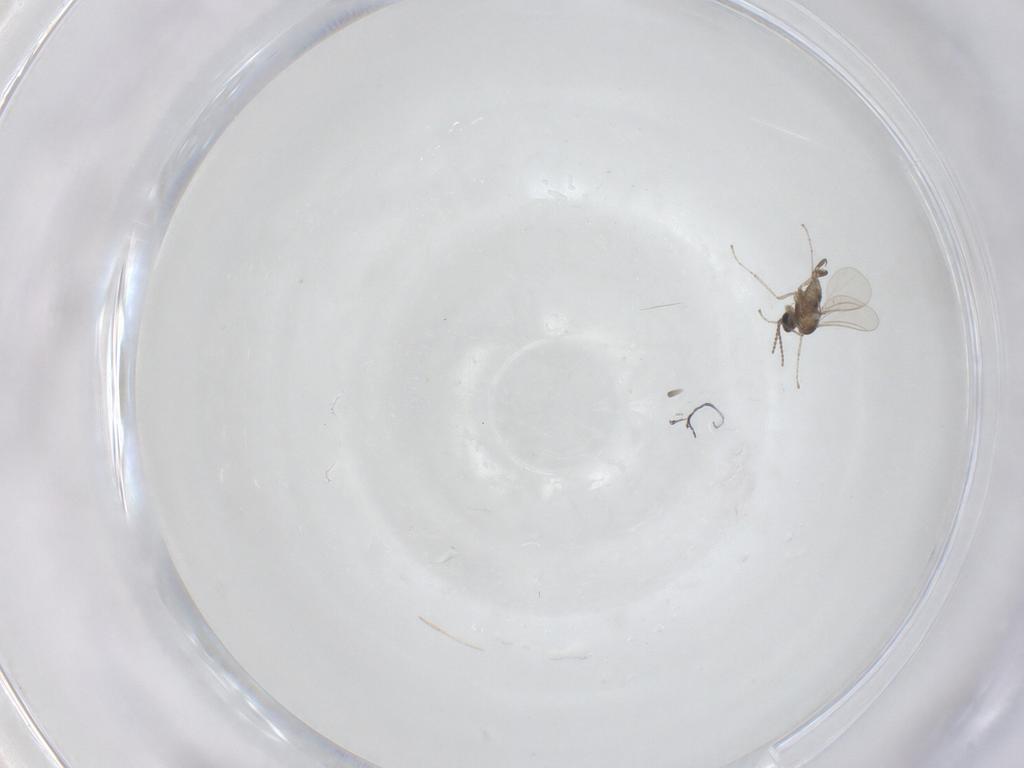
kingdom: Animalia
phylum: Arthropoda
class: Insecta
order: Diptera
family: Cecidomyiidae
